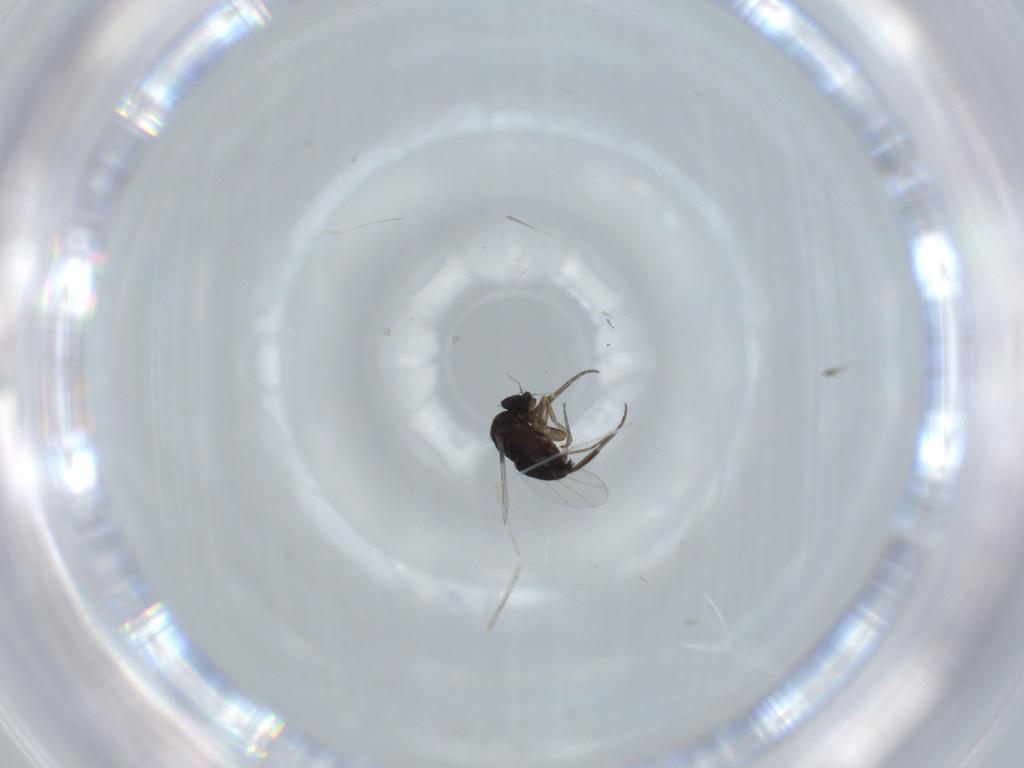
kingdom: Animalia
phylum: Arthropoda
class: Insecta
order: Diptera
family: Phoridae
